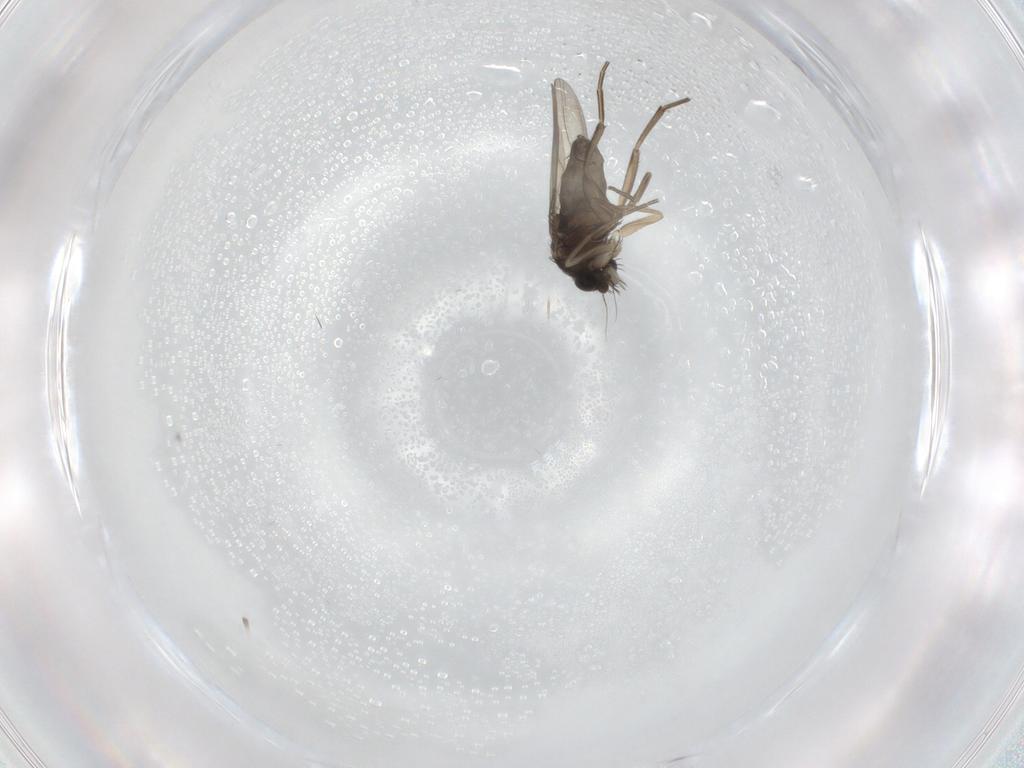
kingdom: Animalia
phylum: Arthropoda
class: Insecta
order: Diptera
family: Phoridae
